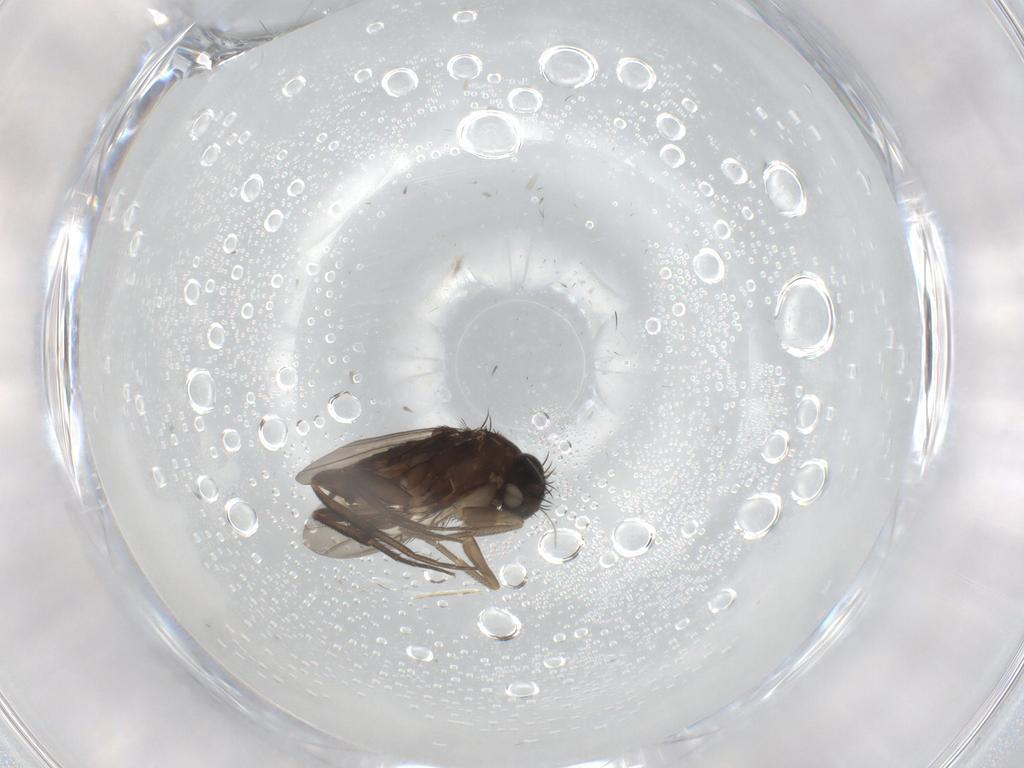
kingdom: Animalia
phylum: Arthropoda
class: Insecta
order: Diptera
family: Phoridae
